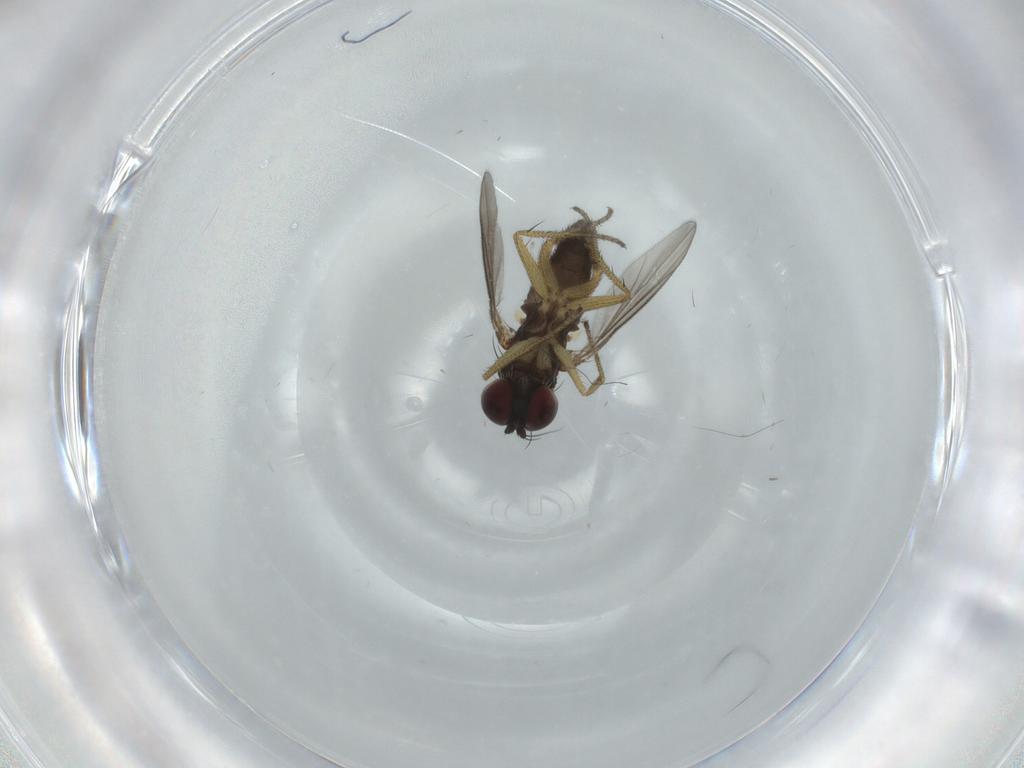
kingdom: Animalia
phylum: Arthropoda
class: Insecta
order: Diptera
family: Dolichopodidae
